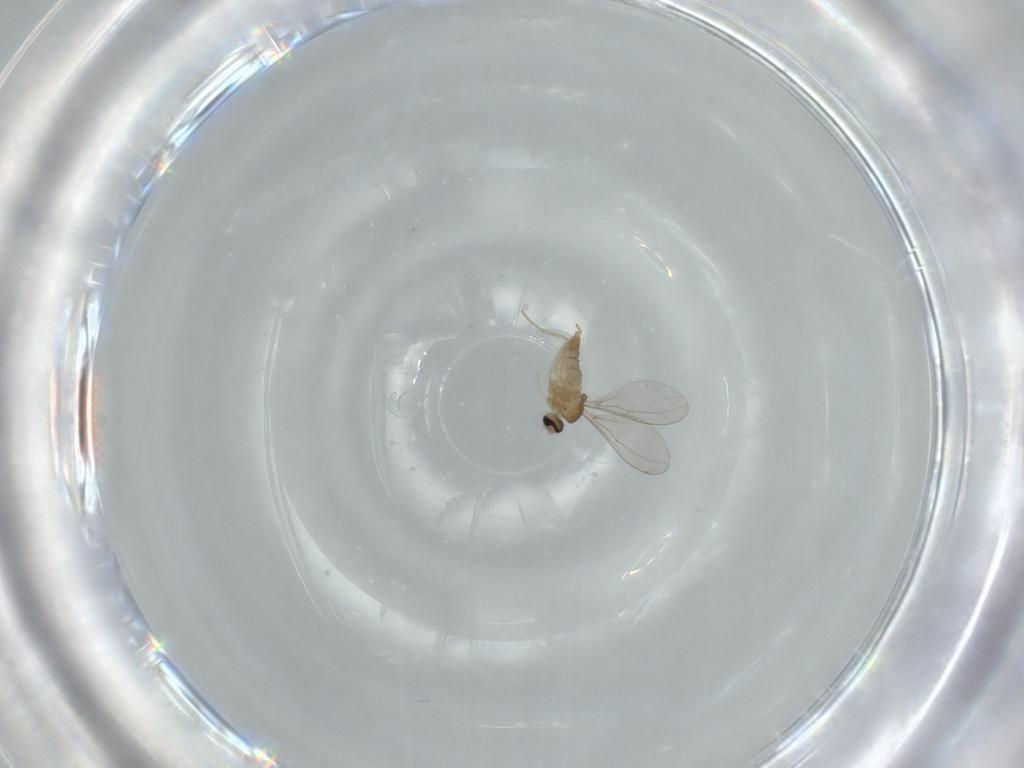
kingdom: Animalia
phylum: Arthropoda
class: Insecta
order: Diptera
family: Cecidomyiidae
